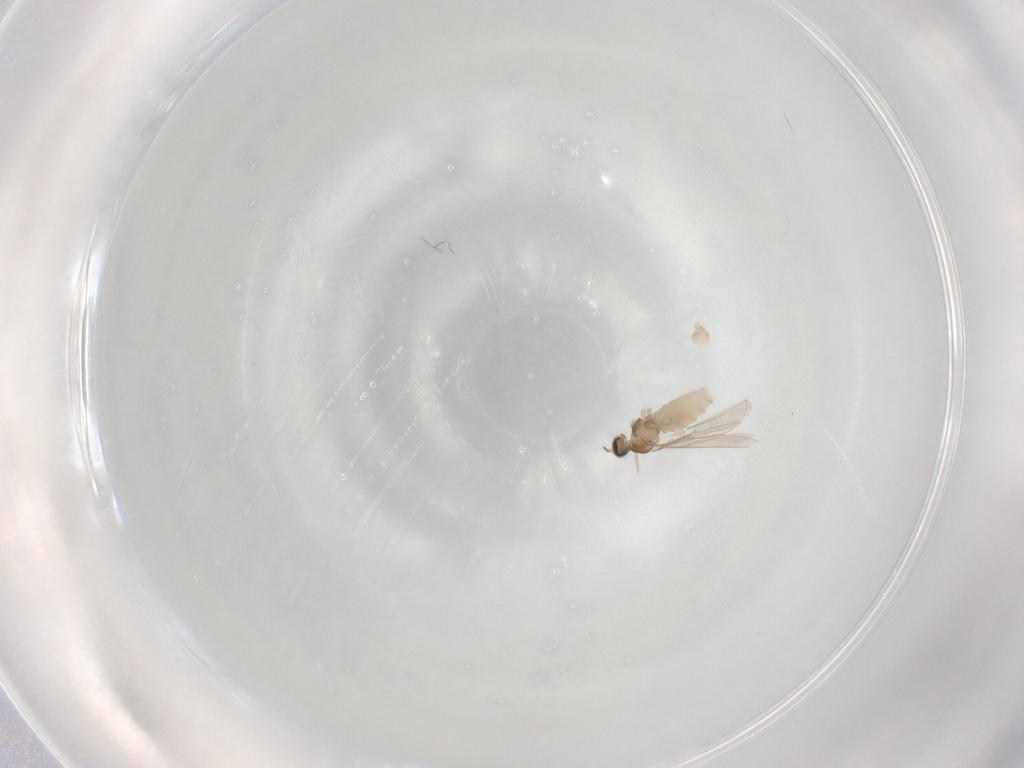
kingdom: Animalia
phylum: Arthropoda
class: Insecta
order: Diptera
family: Cecidomyiidae
